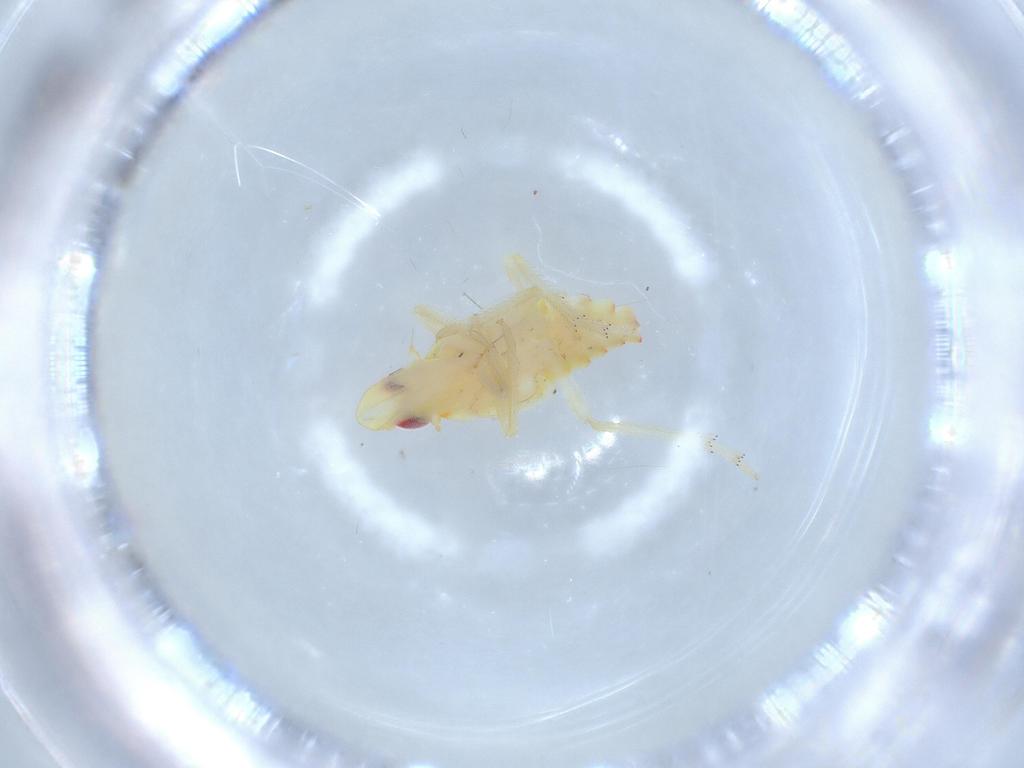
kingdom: Animalia
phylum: Arthropoda
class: Insecta
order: Hemiptera
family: Tropiduchidae
